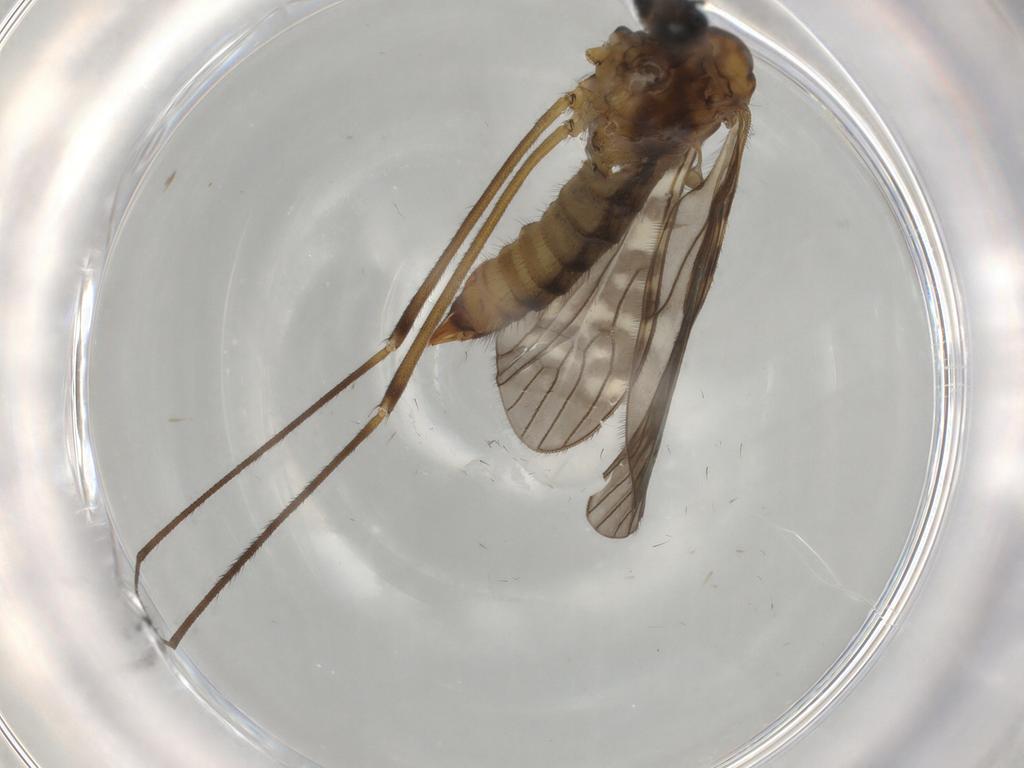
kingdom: Animalia
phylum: Arthropoda
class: Insecta
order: Diptera
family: Limoniidae
